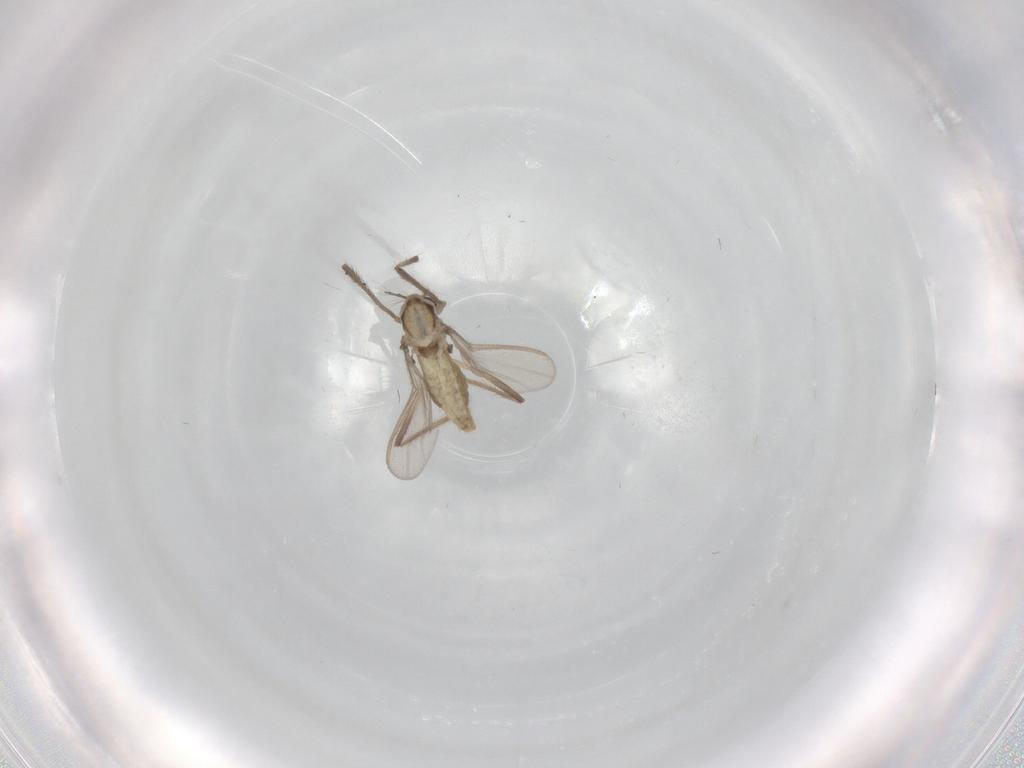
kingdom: Animalia
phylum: Arthropoda
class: Insecta
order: Diptera
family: Chironomidae
